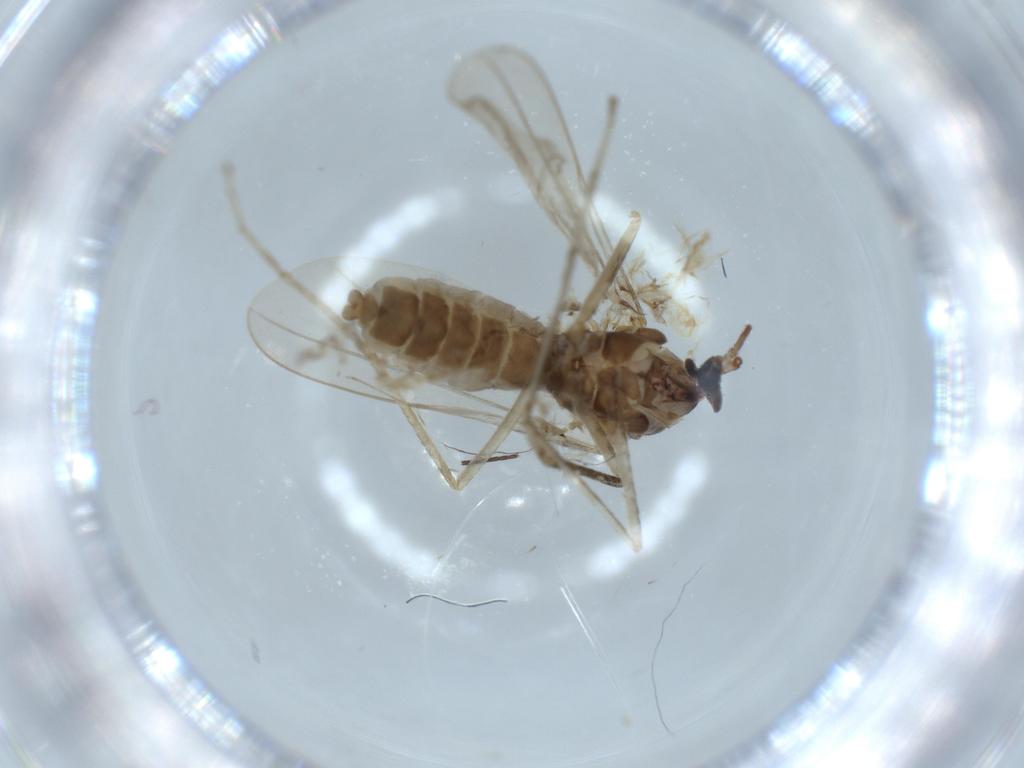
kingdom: Animalia
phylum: Arthropoda
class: Insecta
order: Diptera
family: Cecidomyiidae
